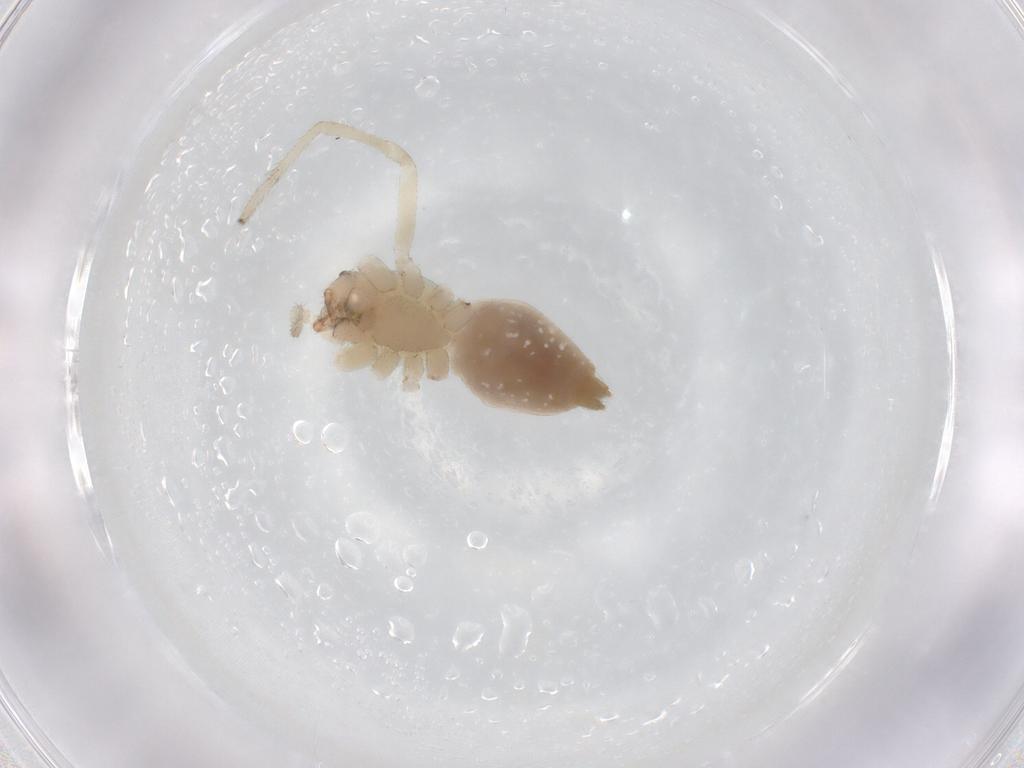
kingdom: Animalia
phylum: Arthropoda
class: Arachnida
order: Araneae
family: Cheiracanthiidae
